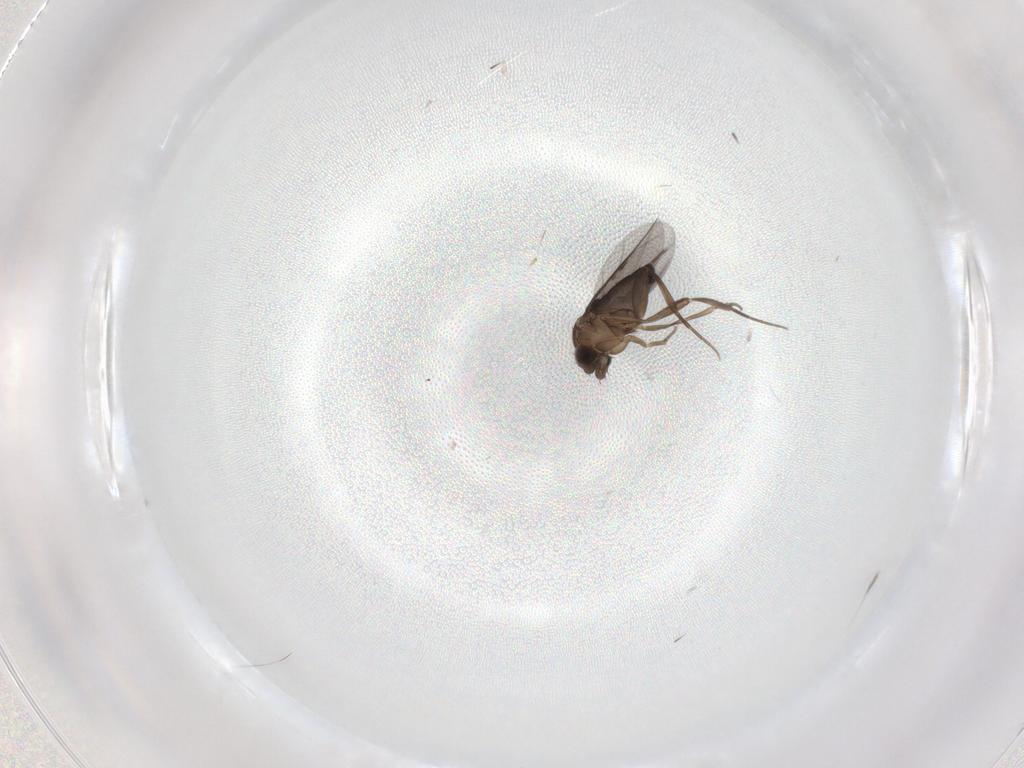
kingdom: Animalia
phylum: Arthropoda
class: Insecta
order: Diptera
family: Phoridae
